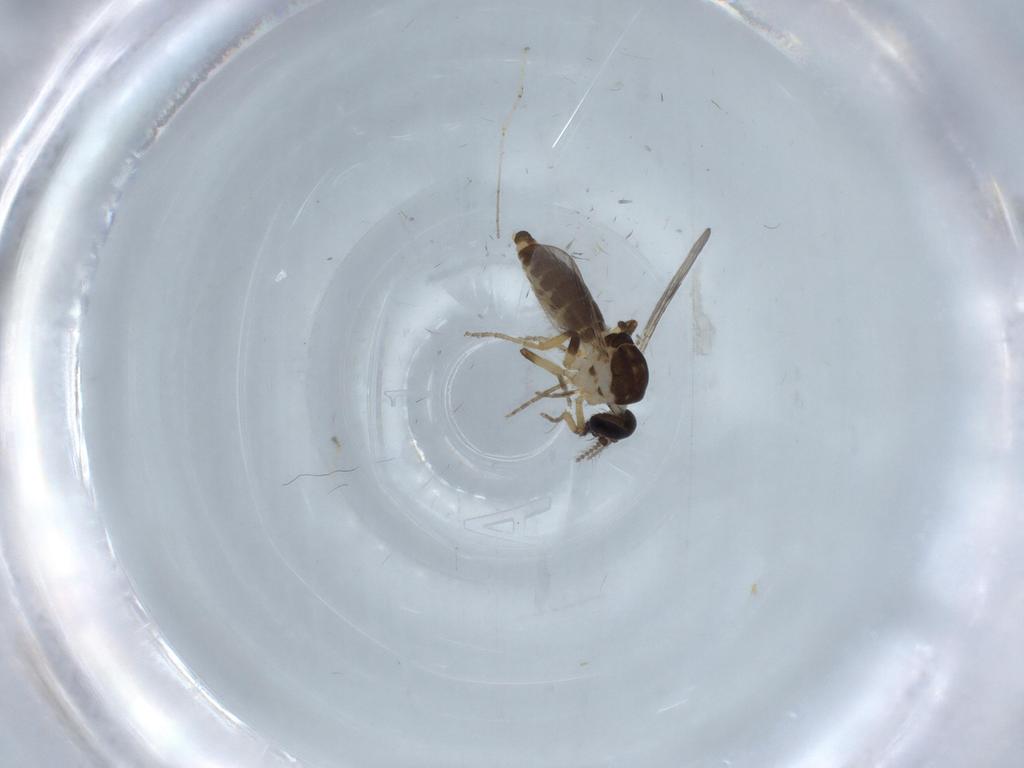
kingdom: Animalia
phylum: Arthropoda
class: Insecta
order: Diptera
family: Ceratopogonidae
